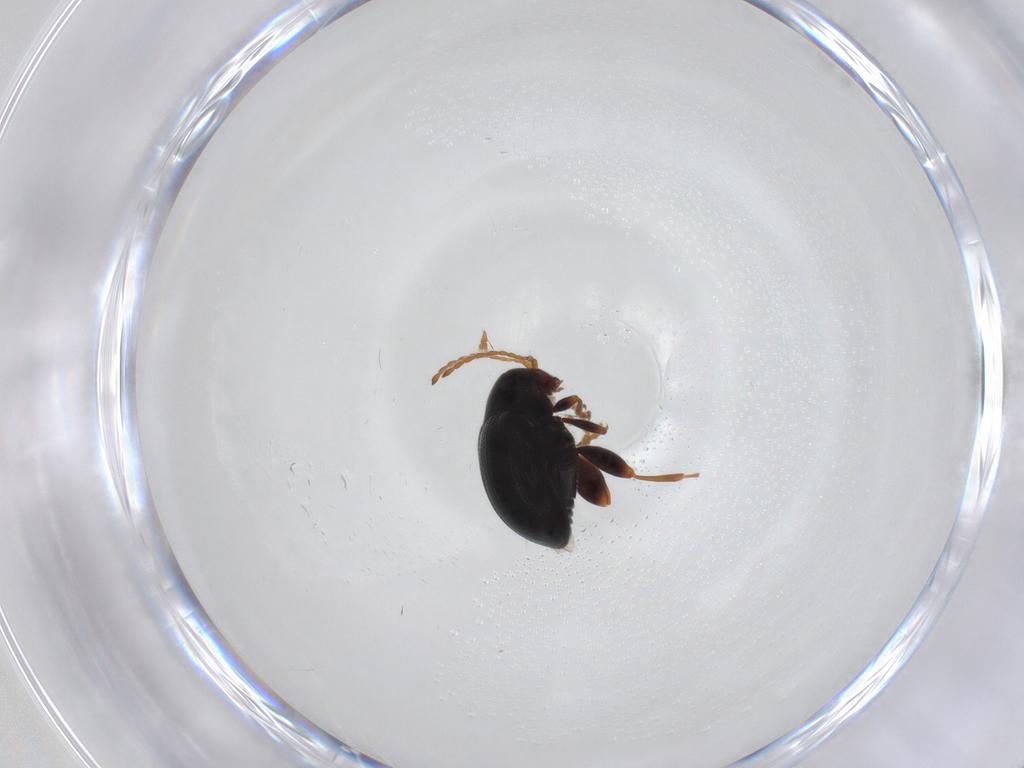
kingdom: Animalia
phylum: Arthropoda
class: Insecta
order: Coleoptera
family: Chrysomelidae
